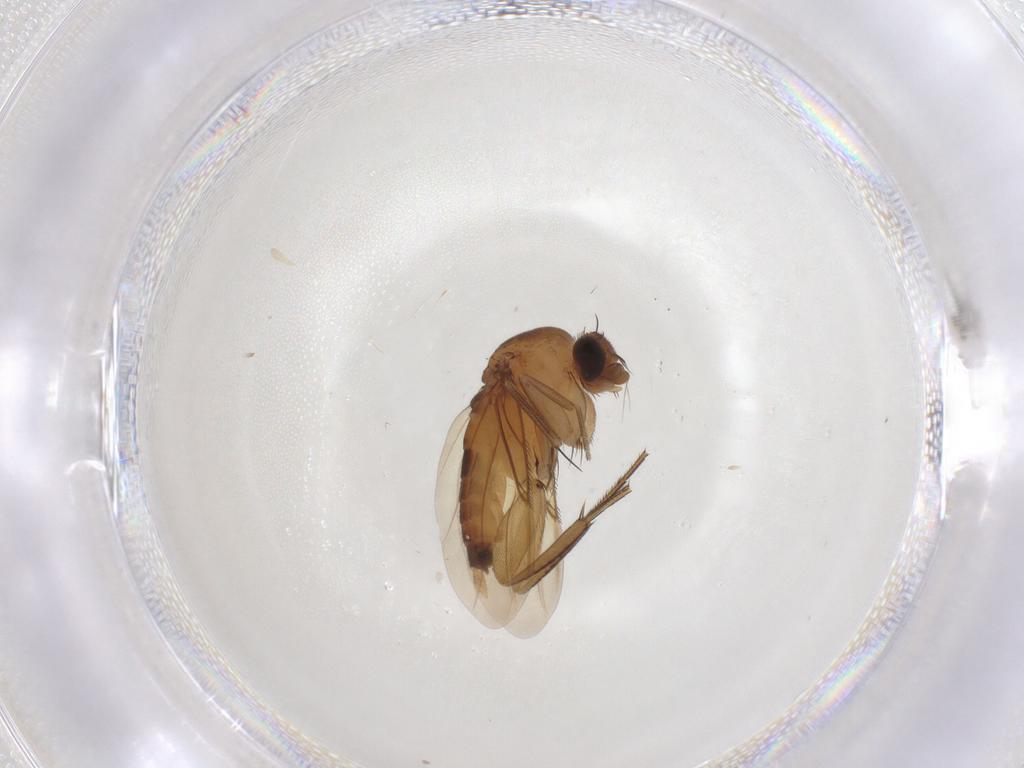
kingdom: Animalia
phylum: Arthropoda
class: Insecta
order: Diptera
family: Phoridae
